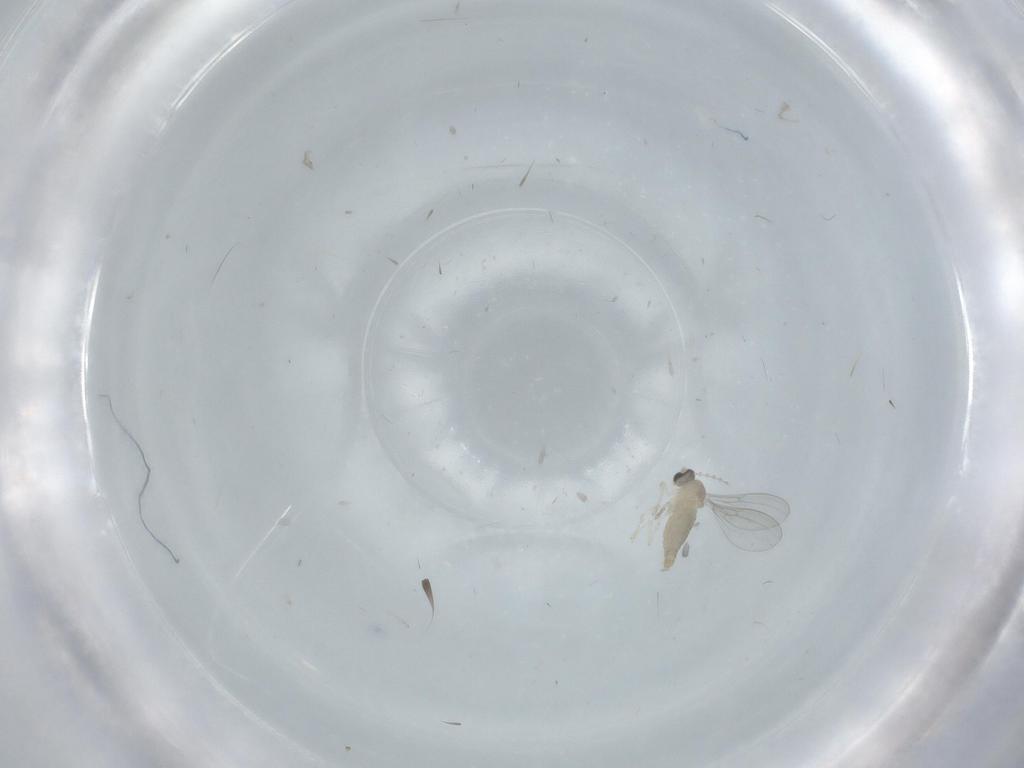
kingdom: Animalia
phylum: Arthropoda
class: Insecta
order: Diptera
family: Cecidomyiidae
